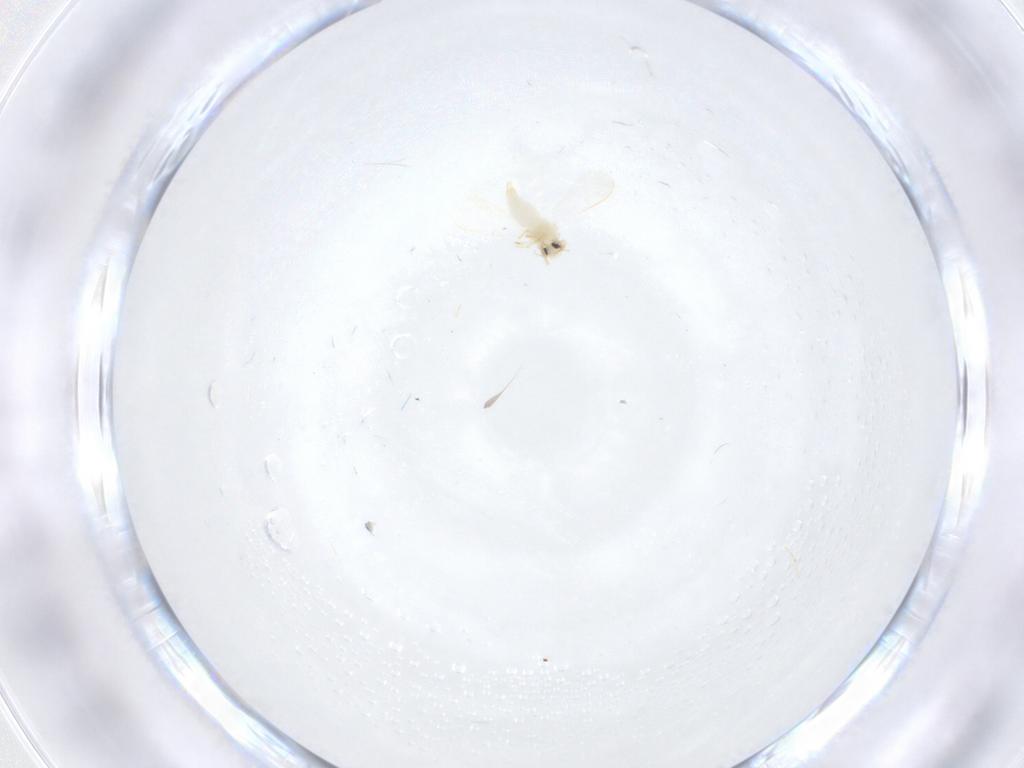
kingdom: Animalia
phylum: Arthropoda
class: Insecta
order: Hemiptera
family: Aleyrodidae
